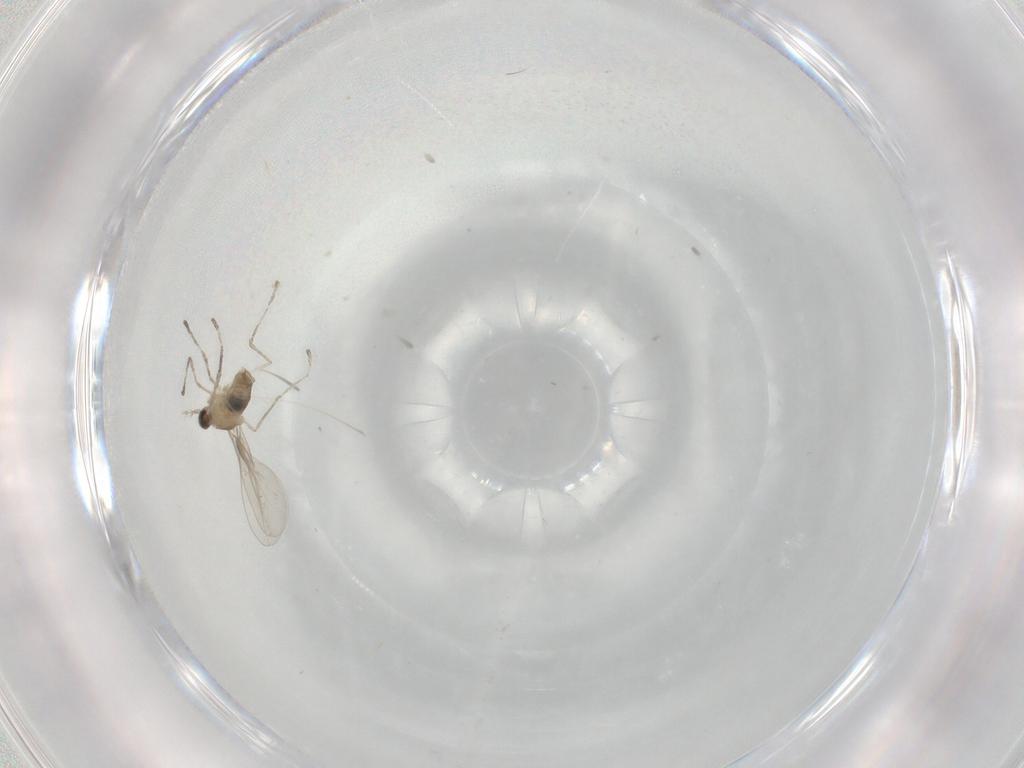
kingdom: Animalia
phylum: Arthropoda
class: Insecta
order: Diptera
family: Cecidomyiidae
